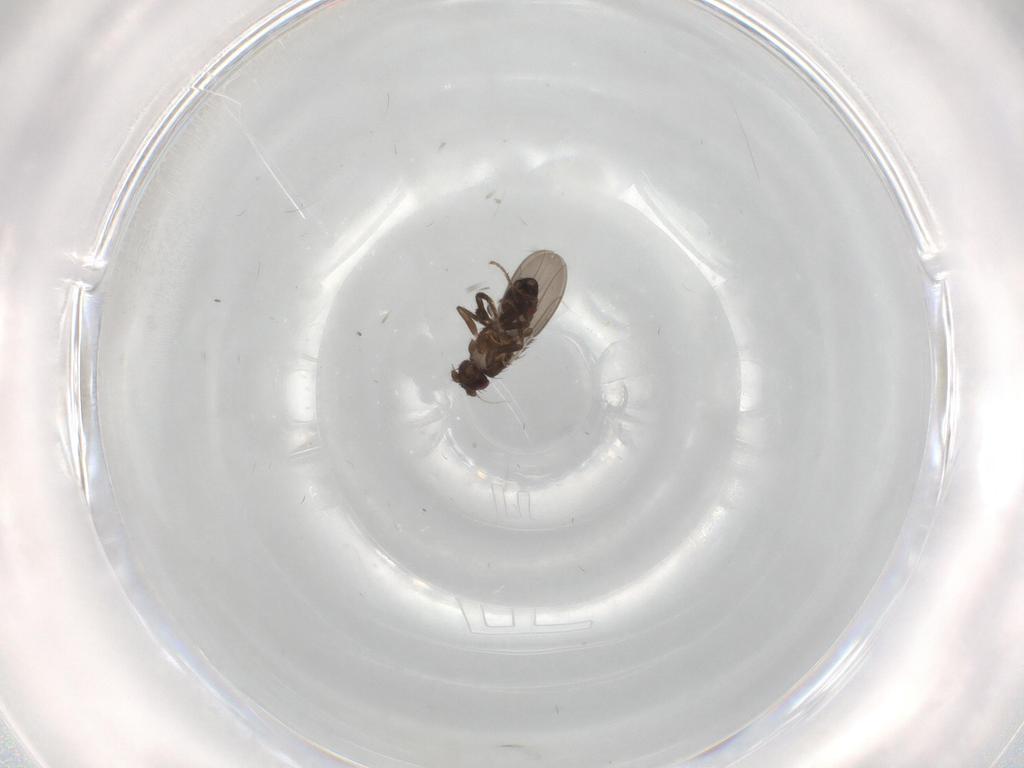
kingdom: Animalia
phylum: Arthropoda
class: Insecta
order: Diptera
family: Sphaeroceridae
